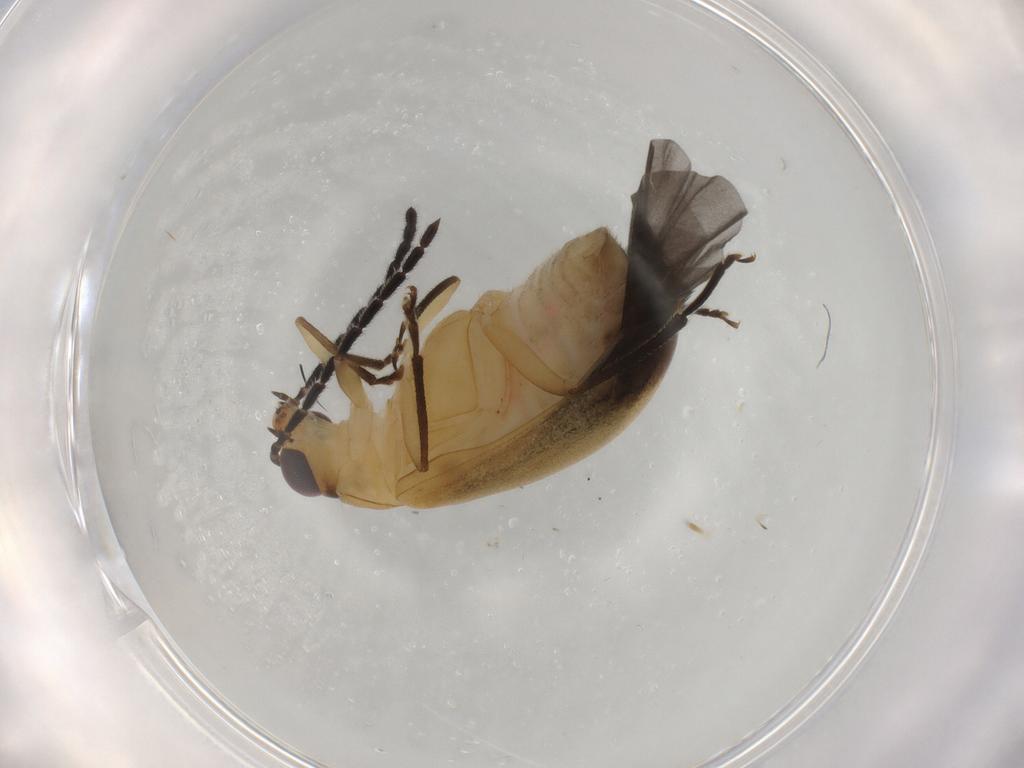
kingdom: Animalia
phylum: Arthropoda
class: Insecta
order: Coleoptera
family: Chrysomelidae
